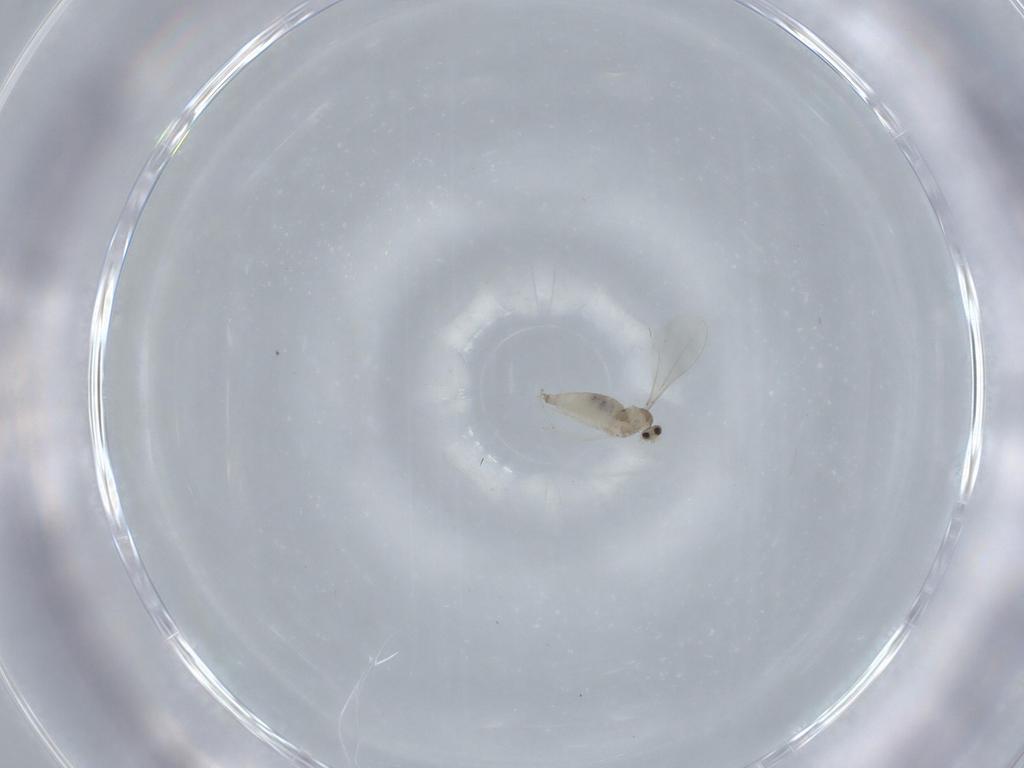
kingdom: Animalia
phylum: Arthropoda
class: Insecta
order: Diptera
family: Cecidomyiidae
